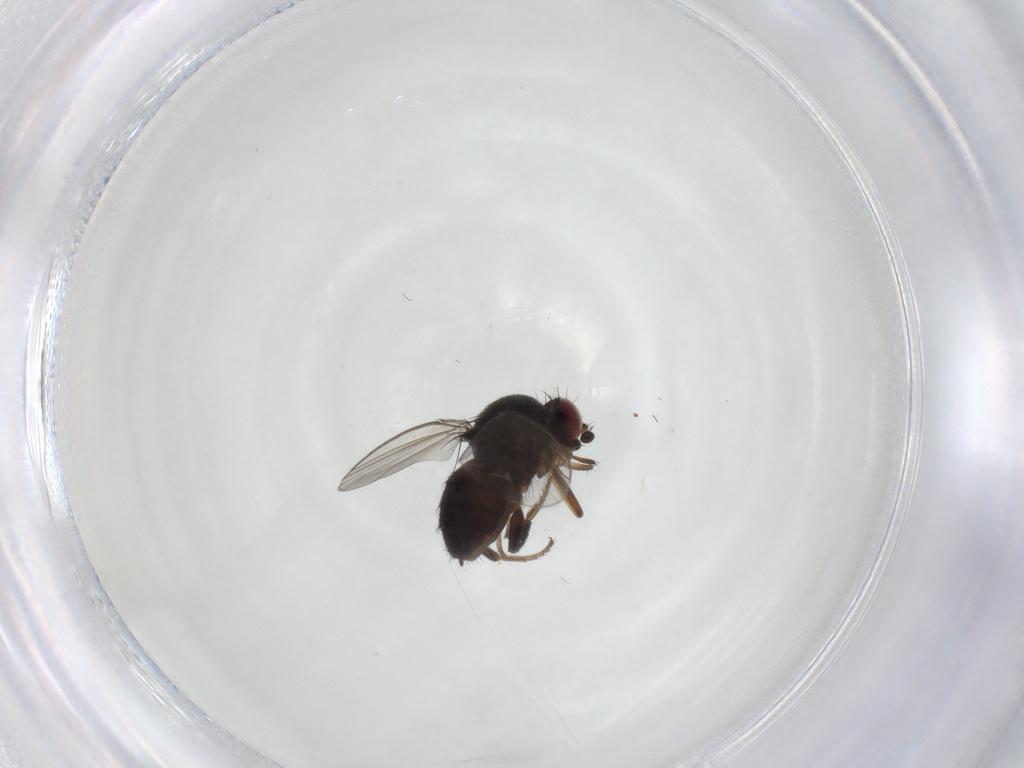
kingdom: Animalia
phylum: Arthropoda
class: Insecta
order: Diptera
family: Milichiidae
